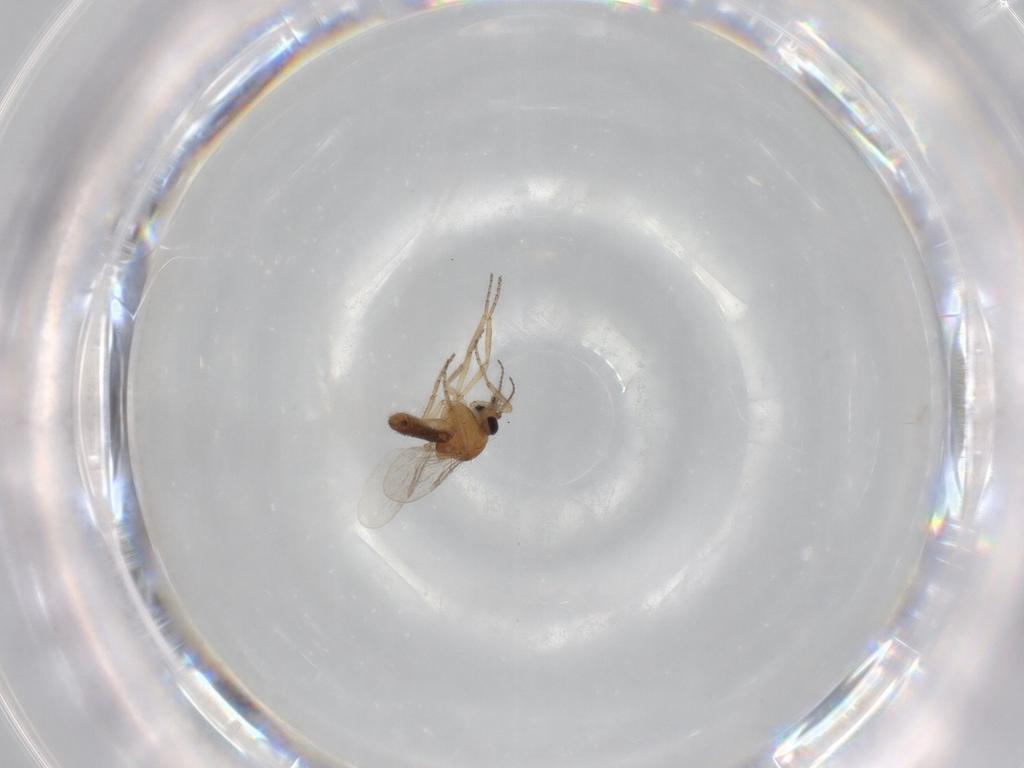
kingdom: Animalia
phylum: Arthropoda
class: Insecta
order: Diptera
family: Ceratopogonidae
